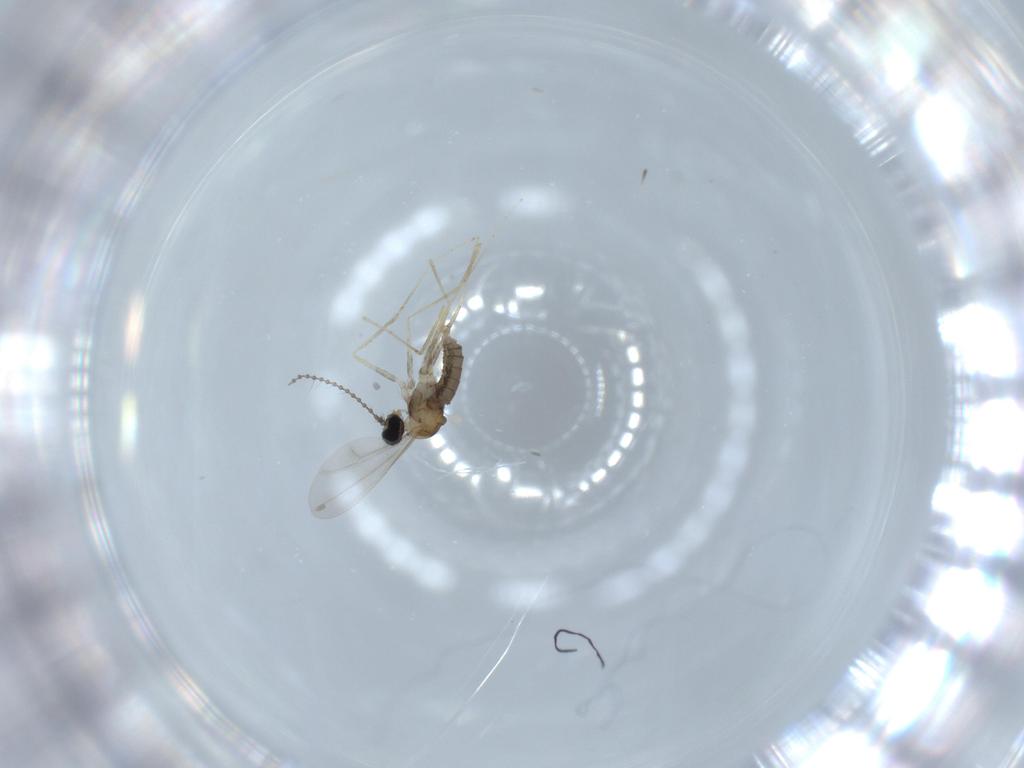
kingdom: Animalia
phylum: Arthropoda
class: Insecta
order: Diptera
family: Cecidomyiidae
